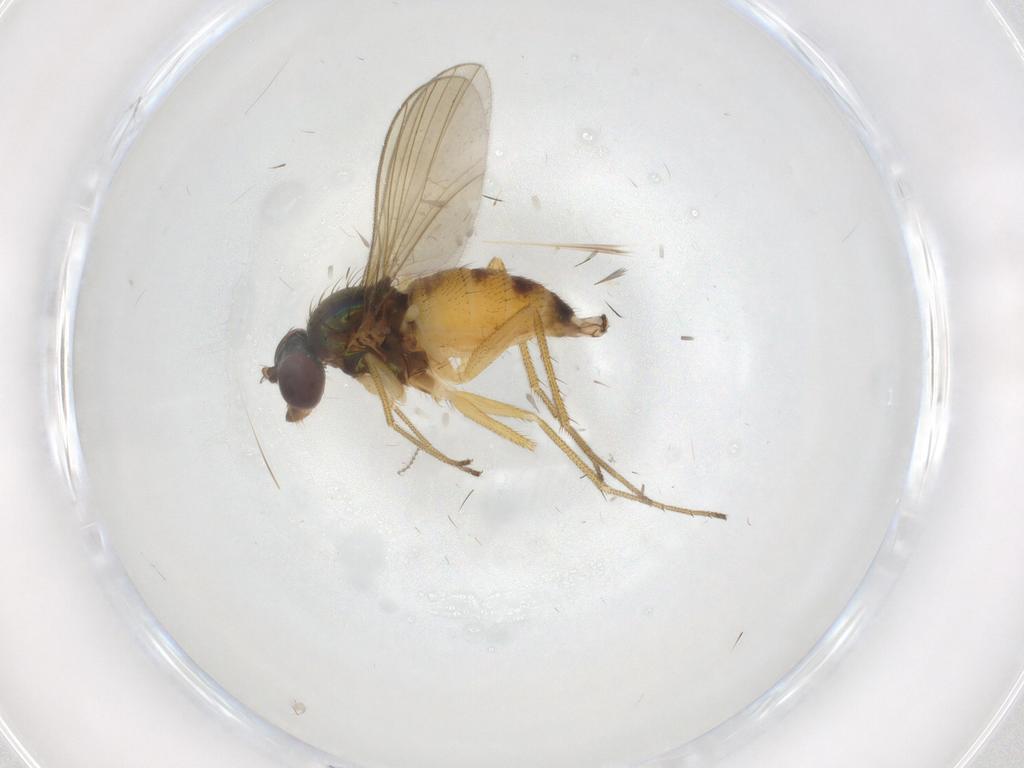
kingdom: Animalia
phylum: Arthropoda
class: Insecta
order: Diptera
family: Dolichopodidae
